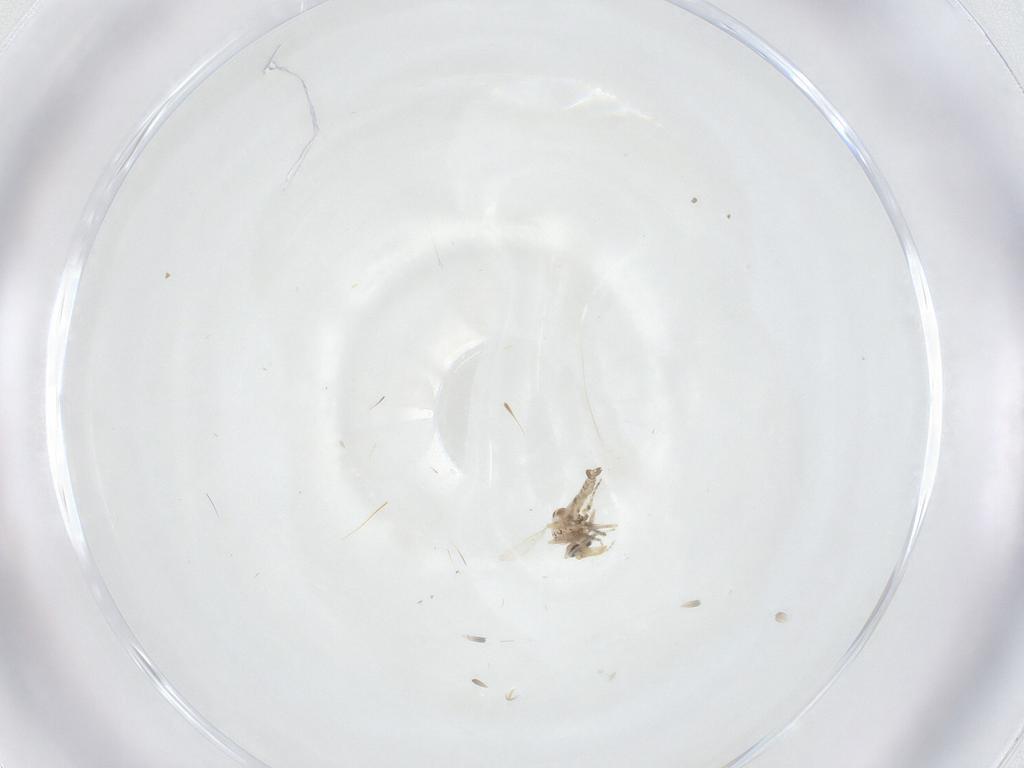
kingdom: Animalia
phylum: Arthropoda
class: Insecta
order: Diptera
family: Ceratopogonidae
